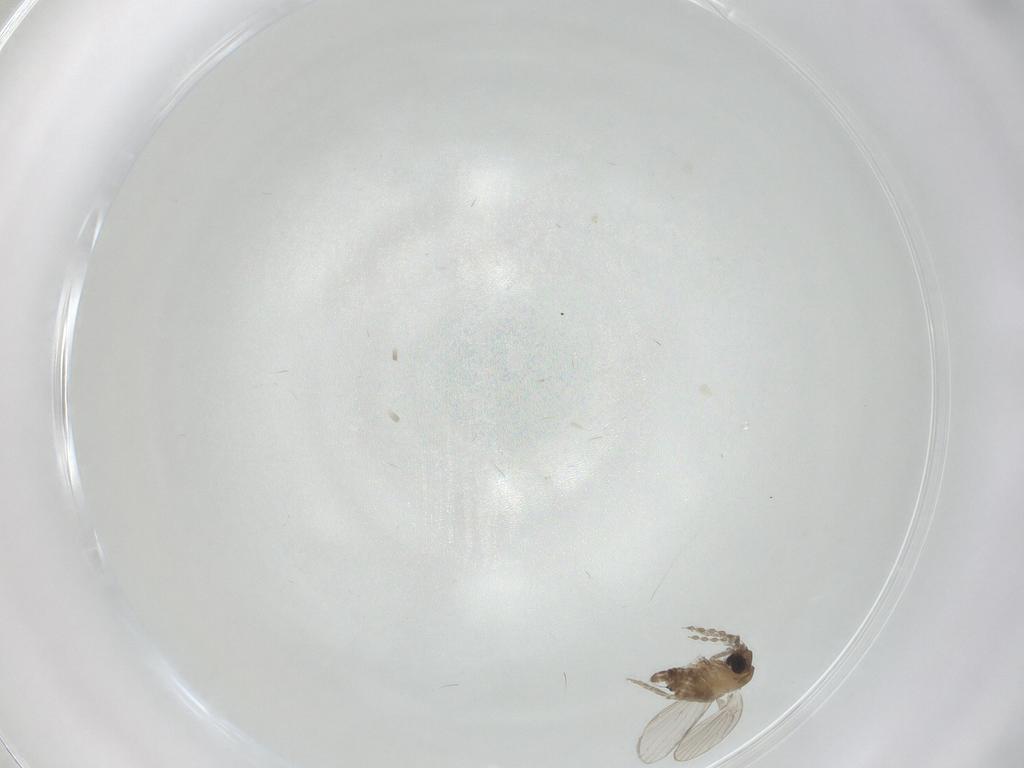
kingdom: Animalia
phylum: Arthropoda
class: Insecta
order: Diptera
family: Psychodidae
